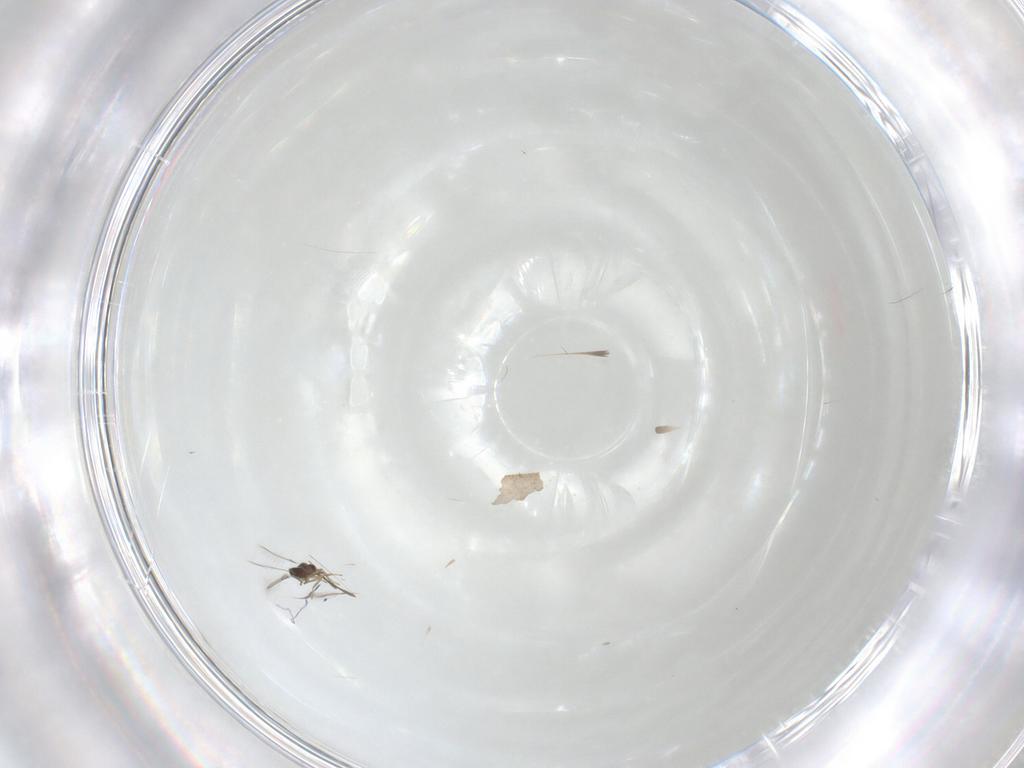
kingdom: Animalia
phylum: Arthropoda
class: Insecta
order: Hymenoptera
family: Mymaridae
